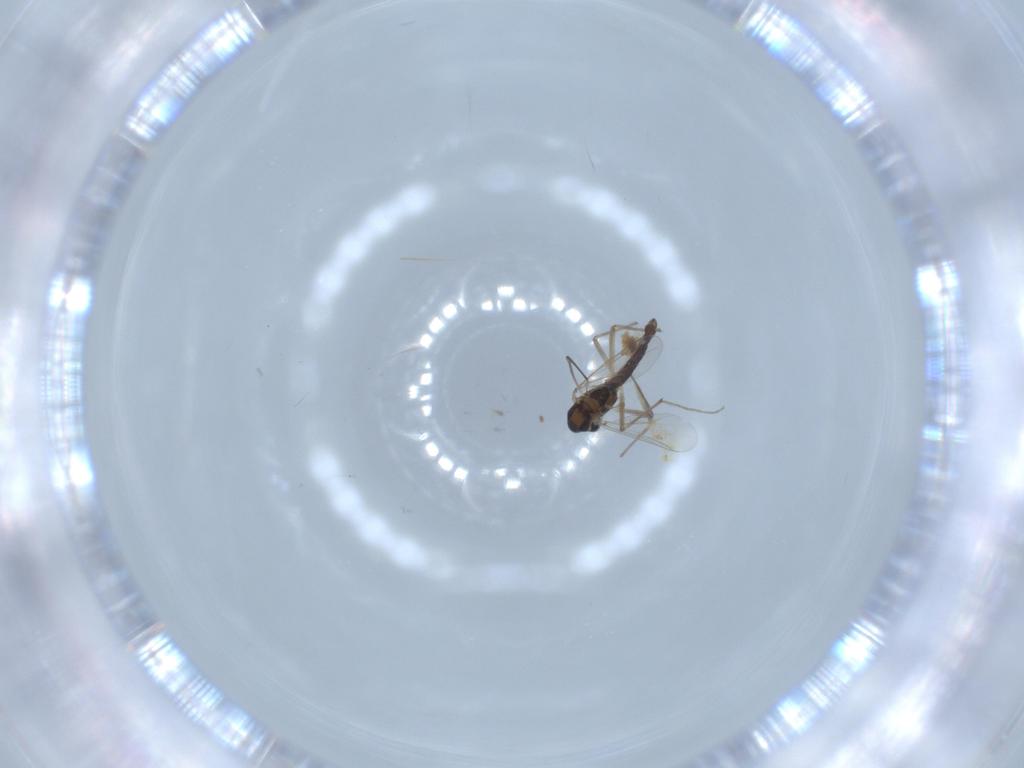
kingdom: Animalia
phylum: Arthropoda
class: Insecta
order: Diptera
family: Chironomidae
